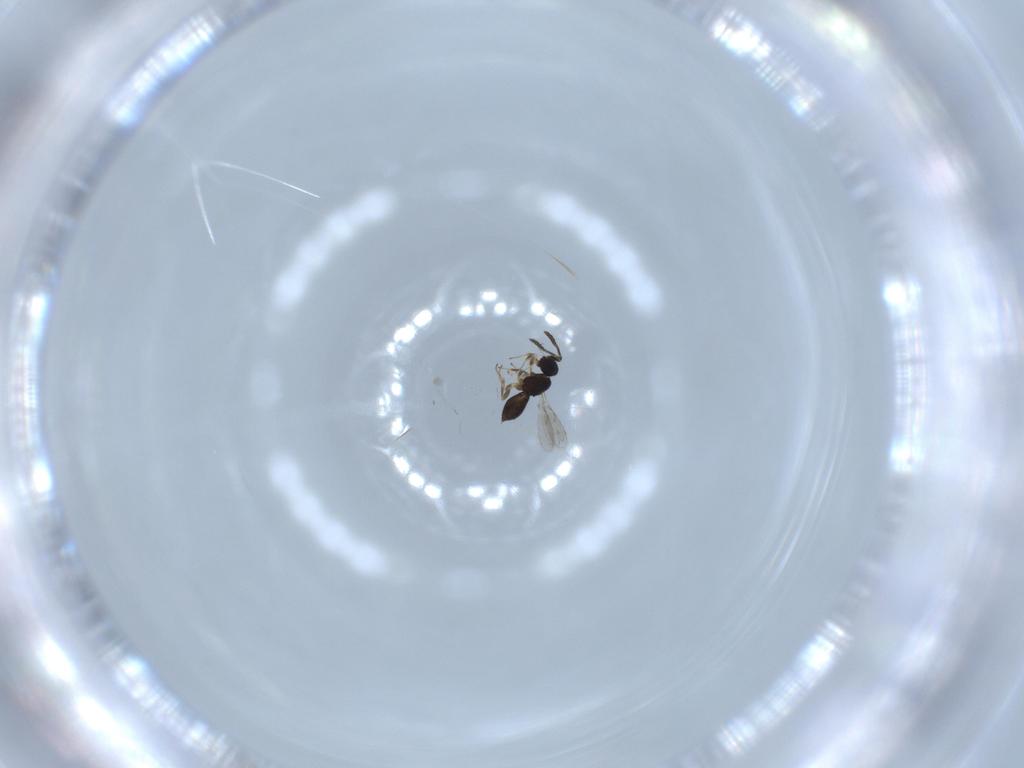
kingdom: Animalia
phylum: Arthropoda
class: Insecta
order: Hymenoptera
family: Scelionidae
